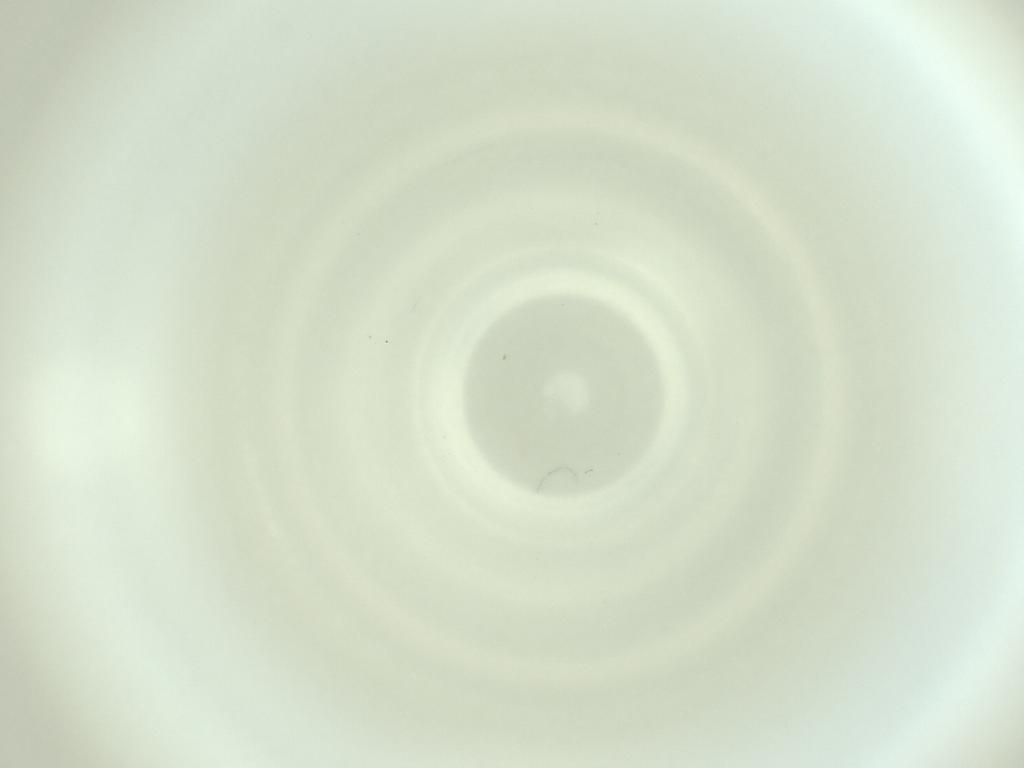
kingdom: Animalia
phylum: Arthropoda
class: Insecta
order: Diptera
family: Cecidomyiidae
